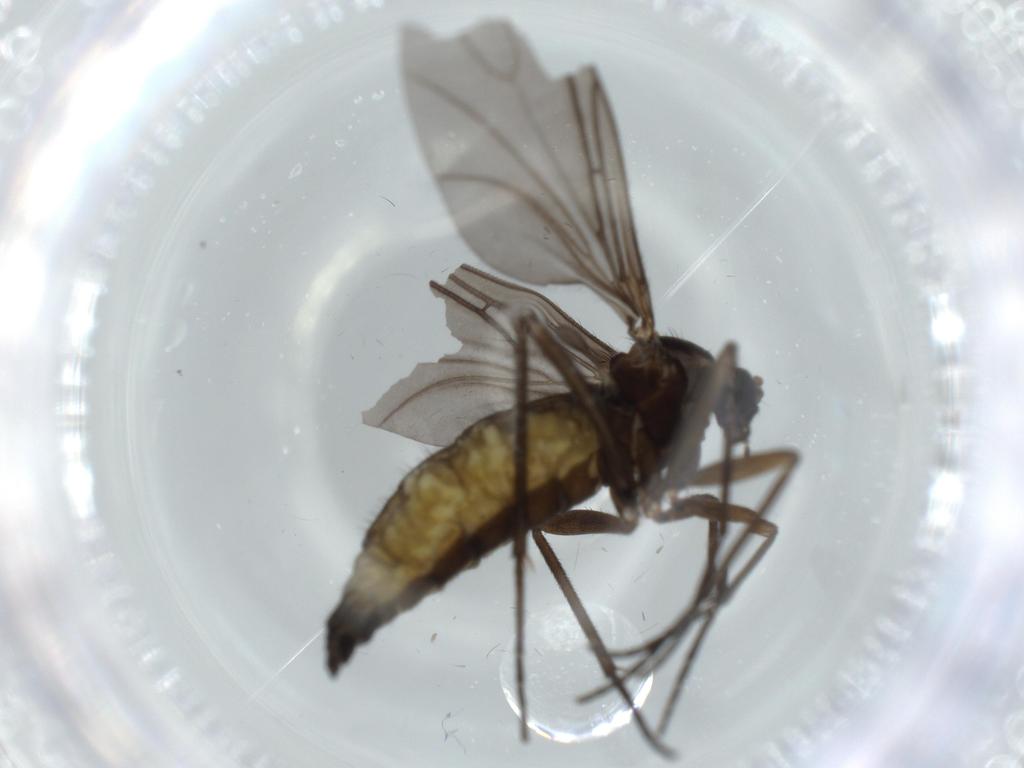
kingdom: Animalia
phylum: Arthropoda
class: Insecta
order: Diptera
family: Sciaridae
